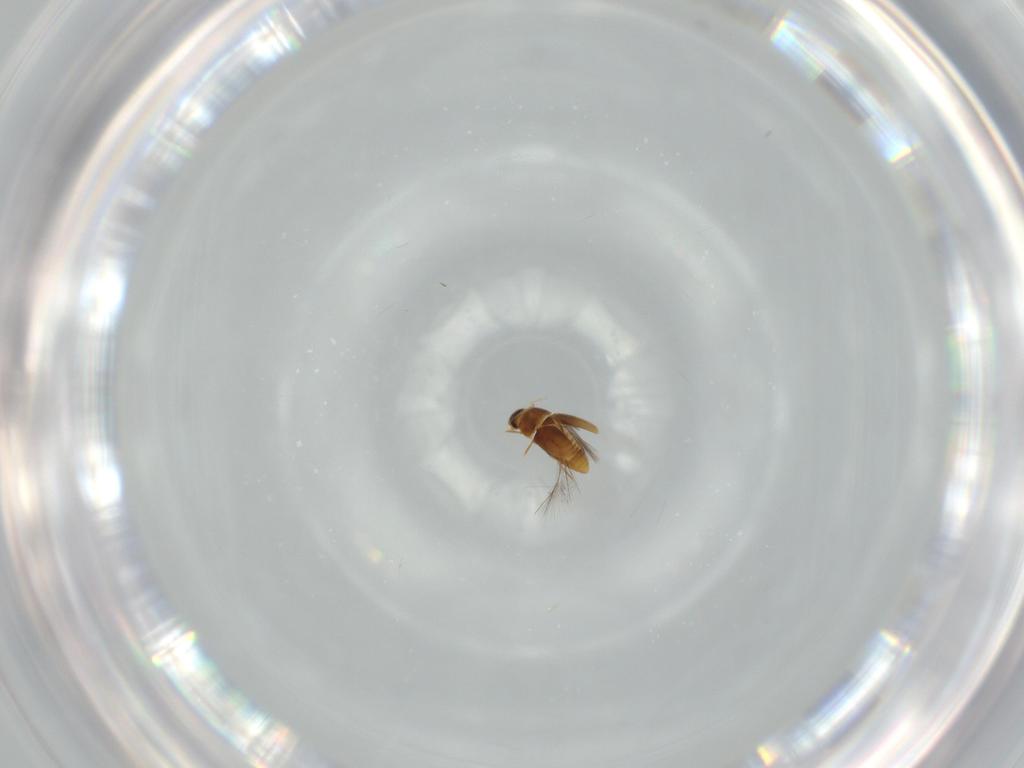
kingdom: Animalia
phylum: Arthropoda
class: Insecta
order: Coleoptera
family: Ptiliidae
